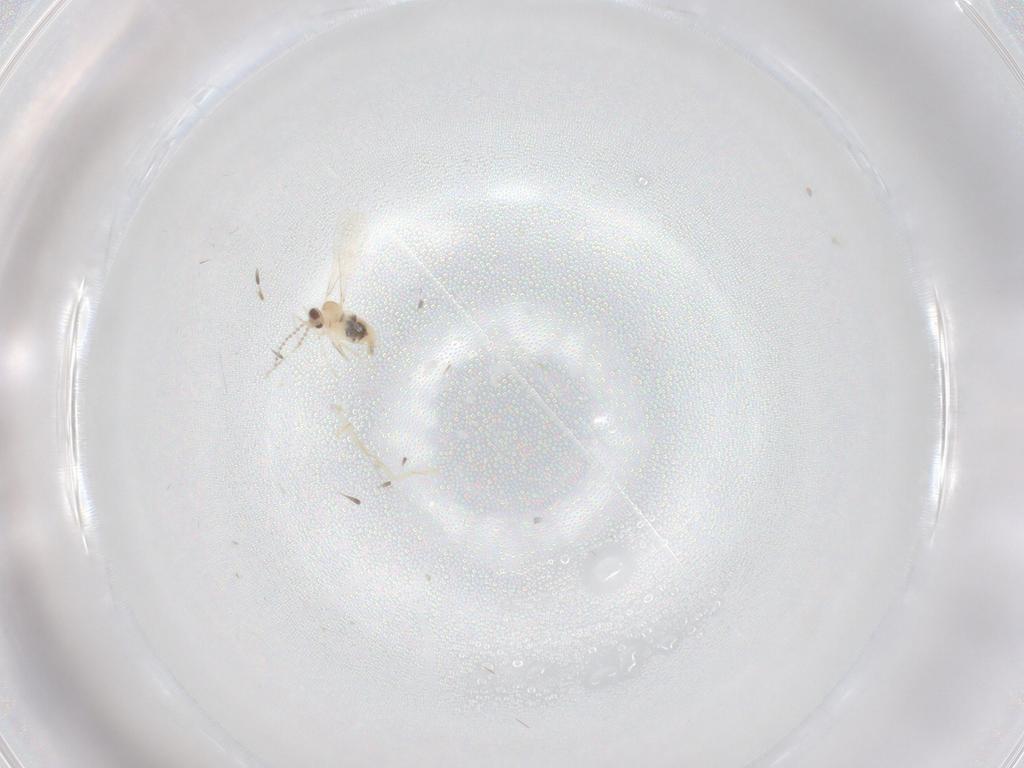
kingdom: Animalia
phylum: Arthropoda
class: Insecta
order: Diptera
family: Cecidomyiidae
